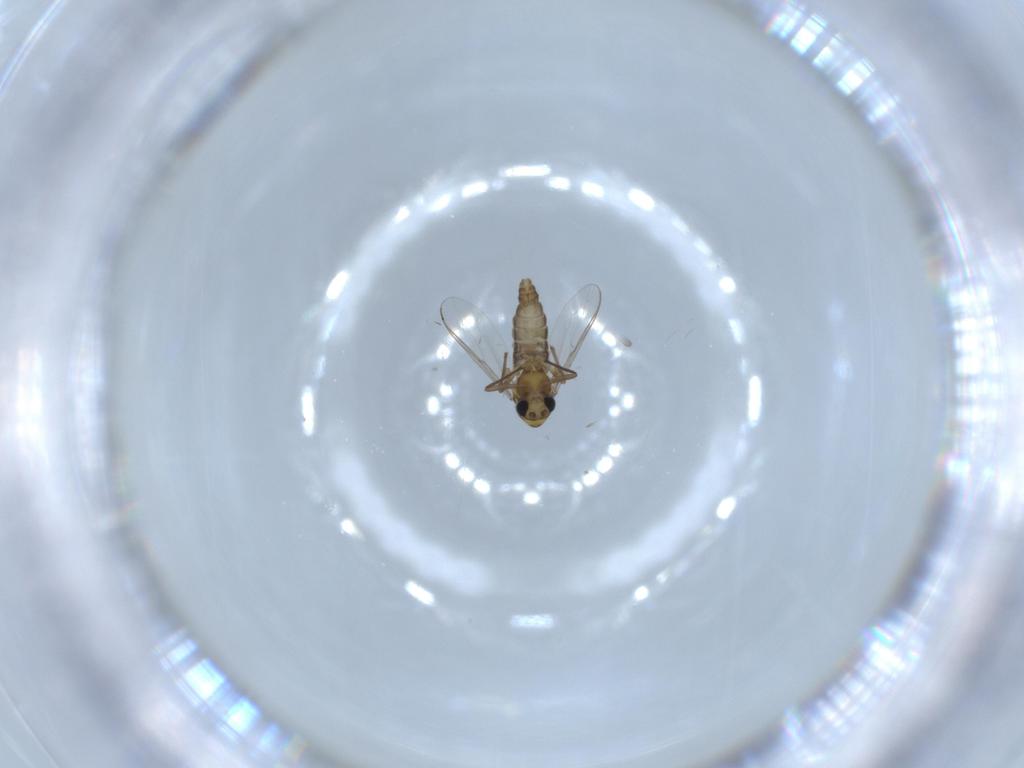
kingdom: Animalia
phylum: Arthropoda
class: Insecta
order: Diptera
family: Chironomidae
